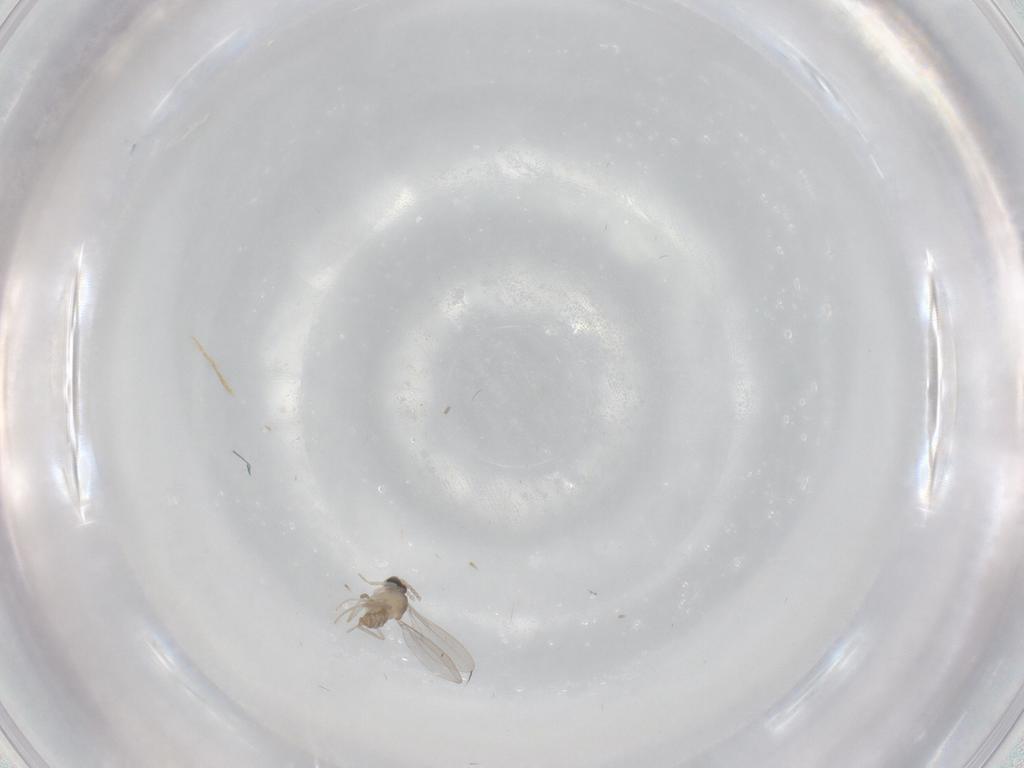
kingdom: Animalia
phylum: Arthropoda
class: Insecta
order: Diptera
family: Cecidomyiidae
